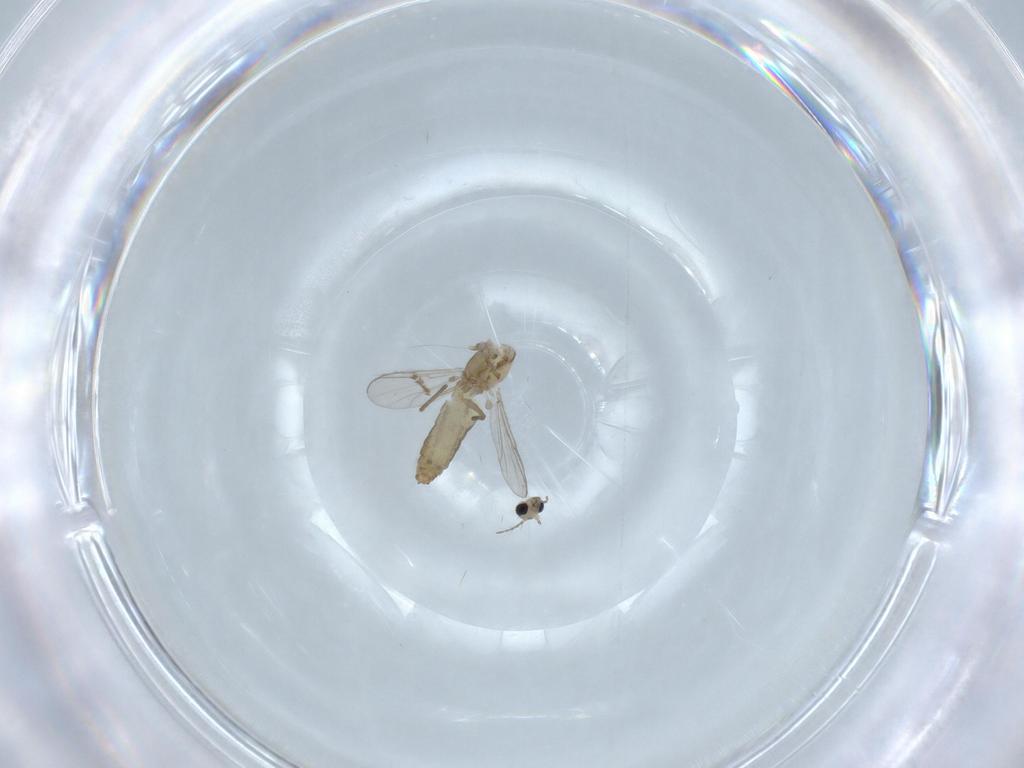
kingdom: Animalia
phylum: Arthropoda
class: Insecta
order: Diptera
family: Chironomidae
